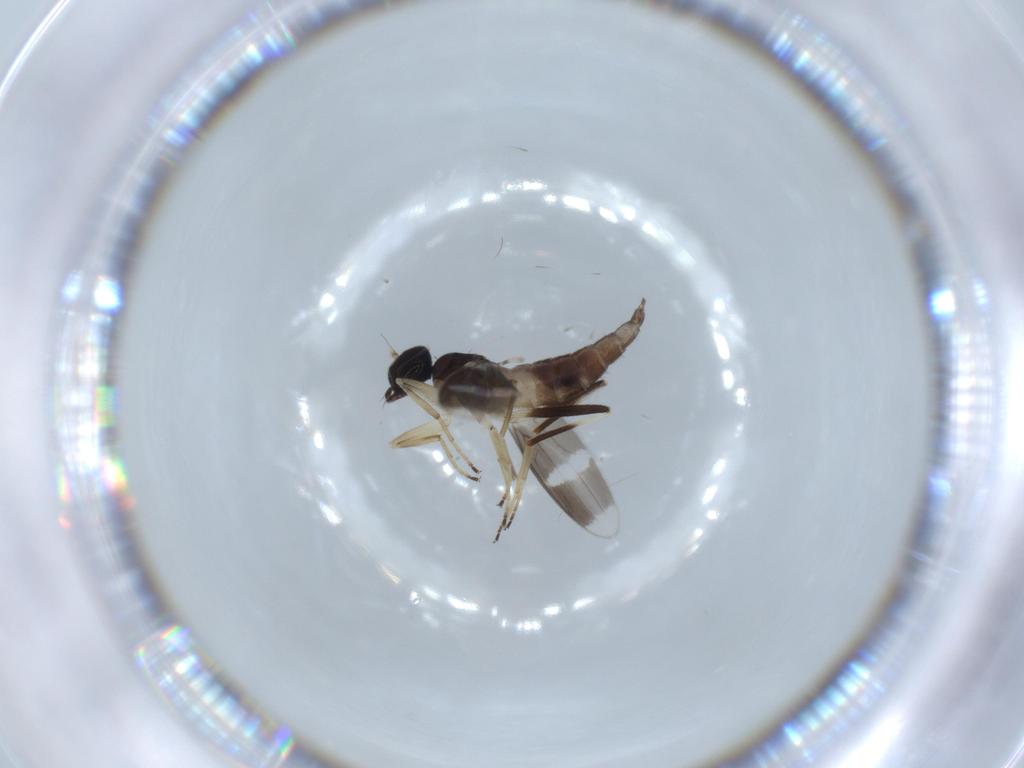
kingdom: Animalia
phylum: Arthropoda
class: Insecta
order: Diptera
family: Hybotidae
